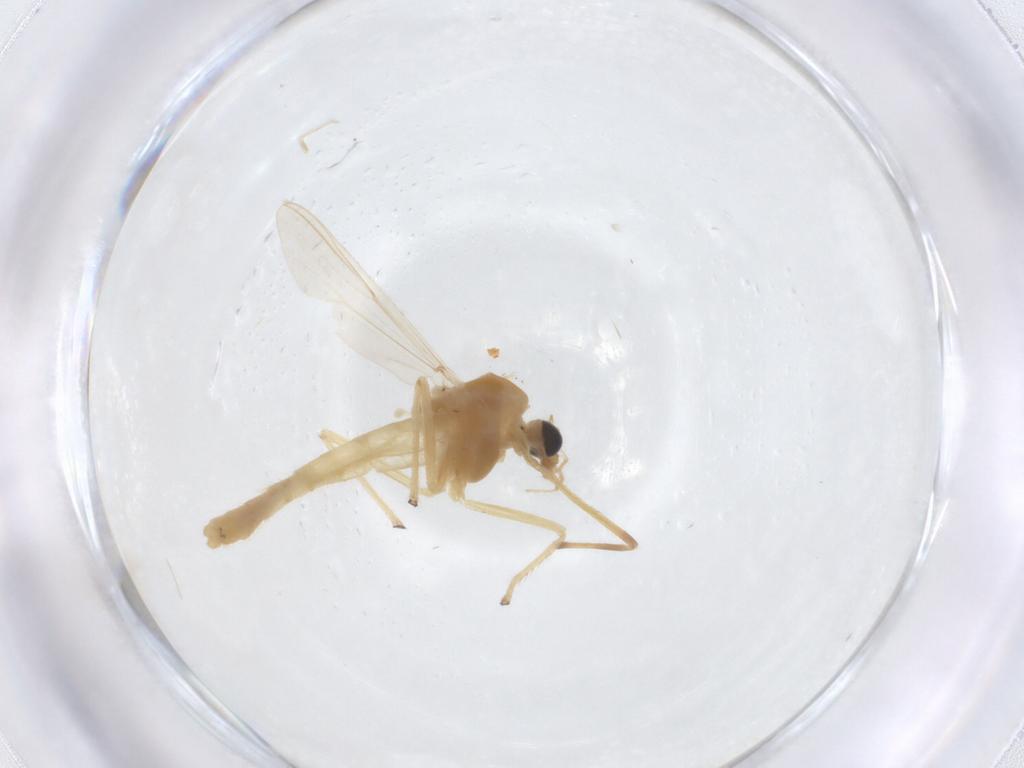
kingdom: Animalia
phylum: Arthropoda
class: Insecta
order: Diptera
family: Chironomidae
